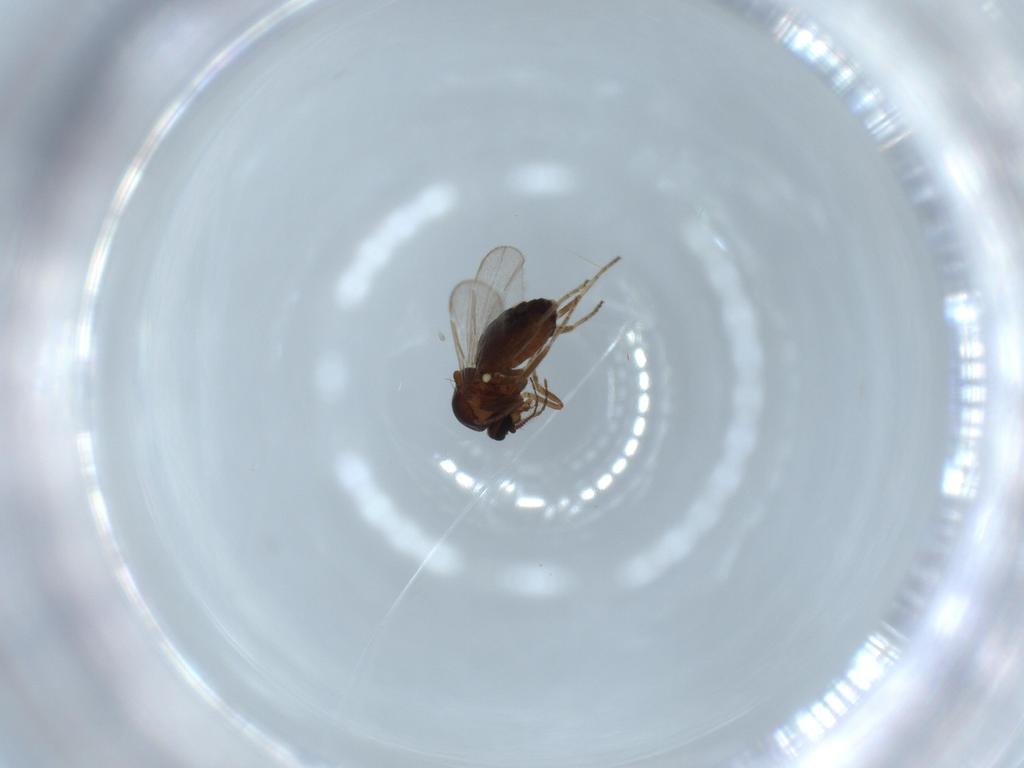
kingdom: Animalia
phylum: Arthropoda
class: Insecta
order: Diptera
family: Ceratopogonidae
